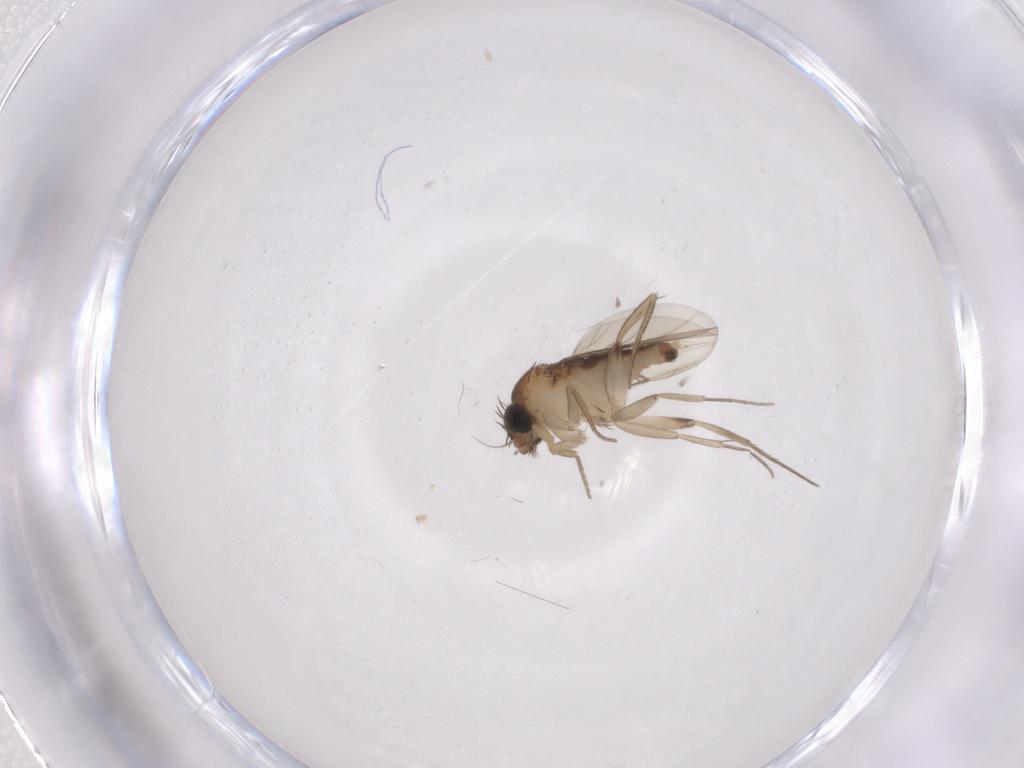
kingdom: Animalia
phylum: Arthropoda
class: Insecta
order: Diptera
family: Phoridae
